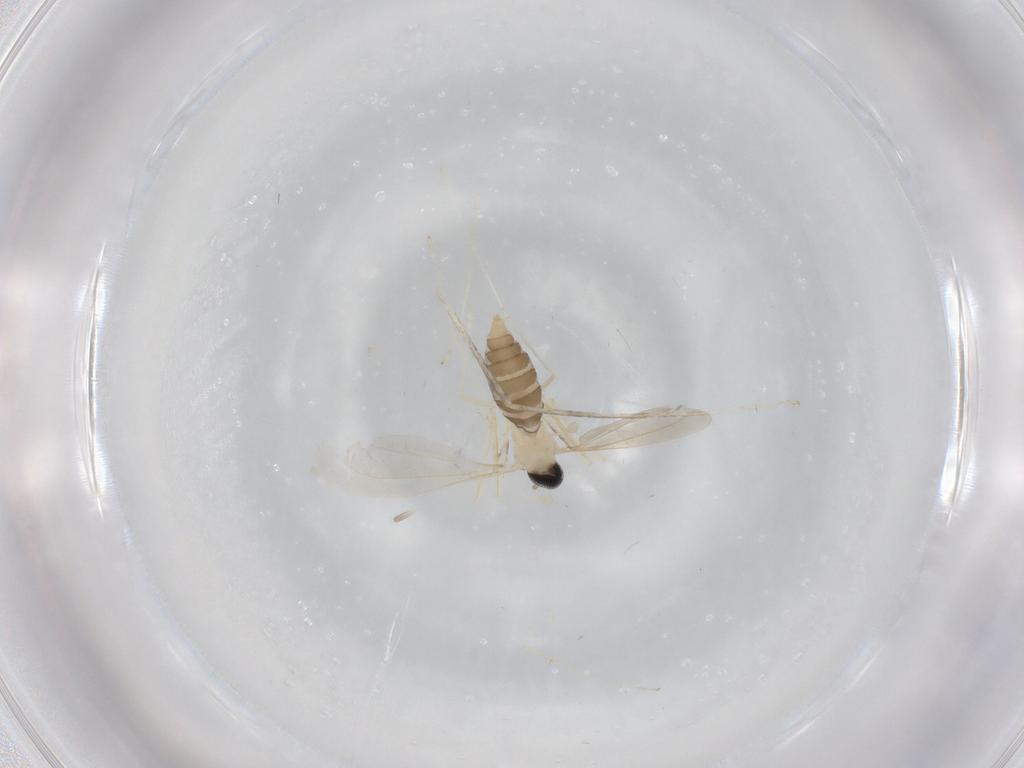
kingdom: Animalia
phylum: Arthropoda
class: Insecta
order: Diptera
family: Cecidomyiidae
